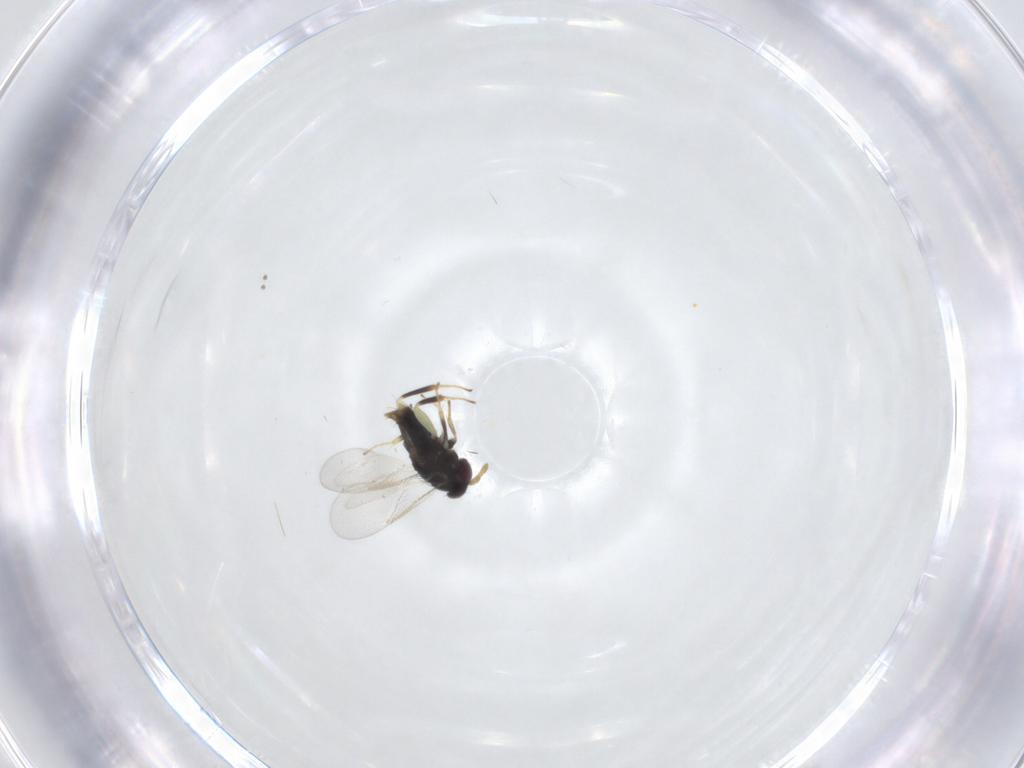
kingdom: Animalia
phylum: Arthropoda
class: Insecta
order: Hymenoptera
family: Aphelinidae
